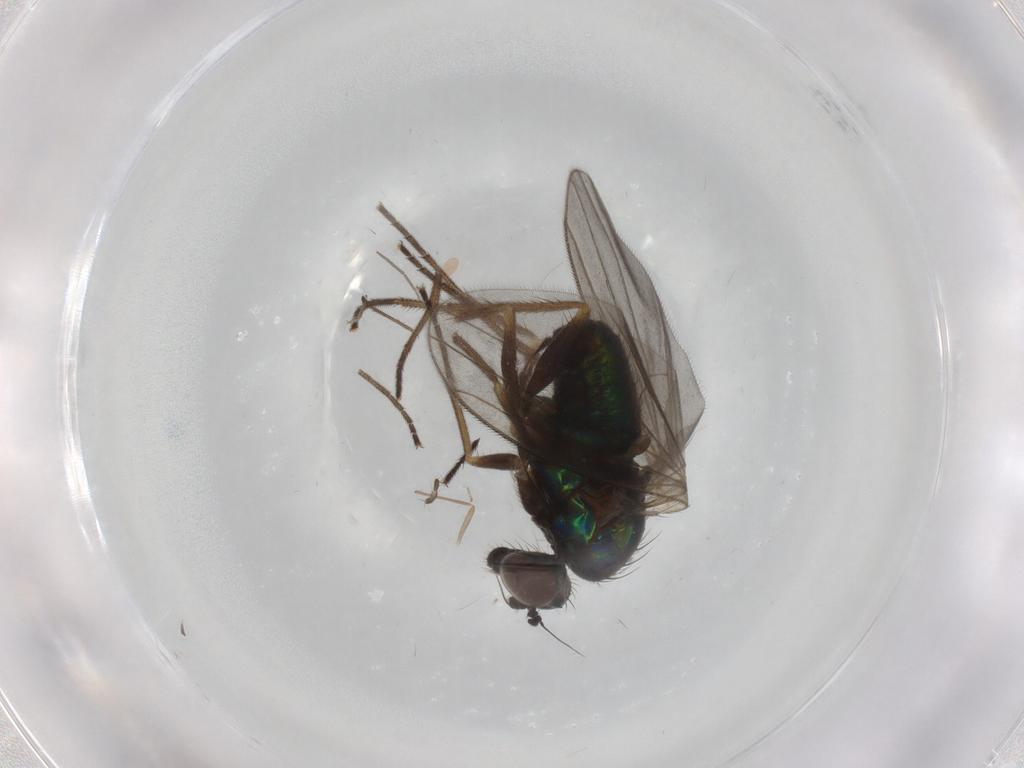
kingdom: Animalia
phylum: Arthropoda
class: Insecta
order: Diptera
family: Dolichopodidae
